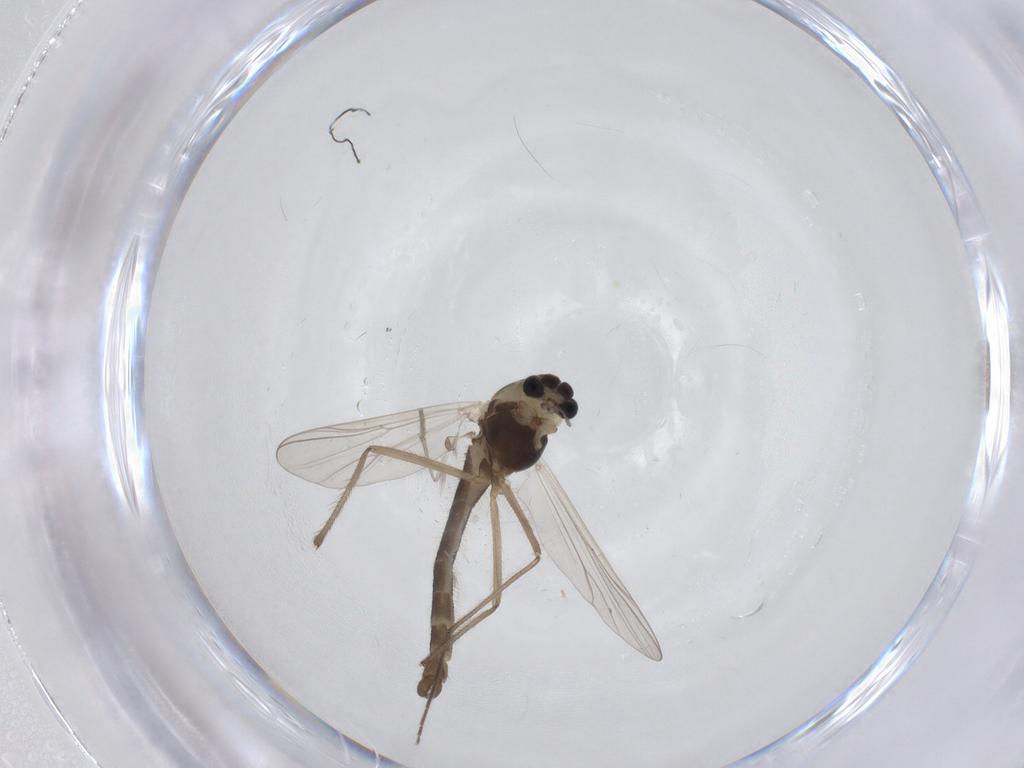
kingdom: Animalia
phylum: Arthropoda
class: Insecta
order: Diptera
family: Chironomidae
